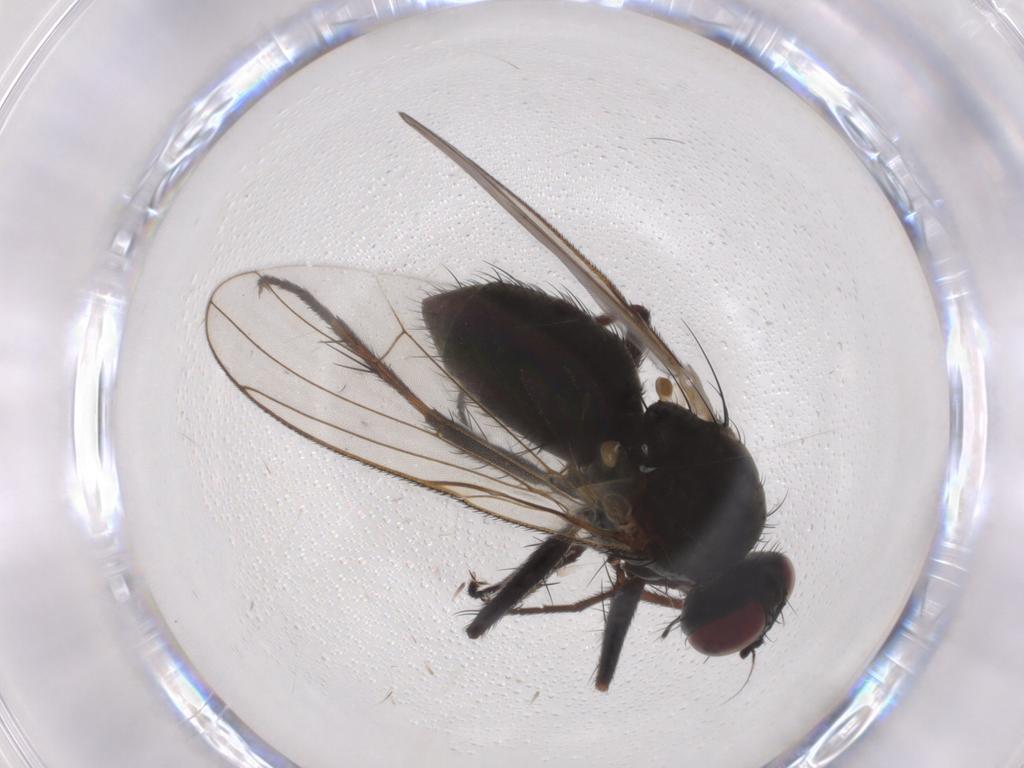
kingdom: Animalia
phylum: Arthropoda
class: Insecta
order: Diptera
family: Muscidae
